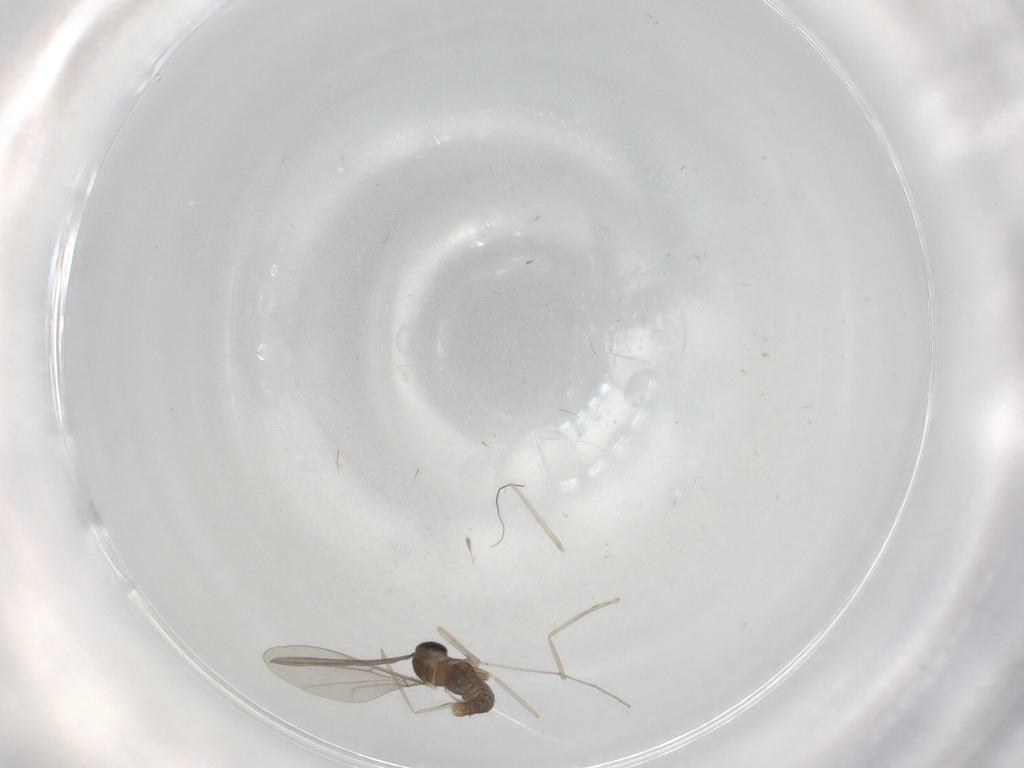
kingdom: Animalia
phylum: Arthropoda
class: Insecta
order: Diptera
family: Cecidomyiidae
